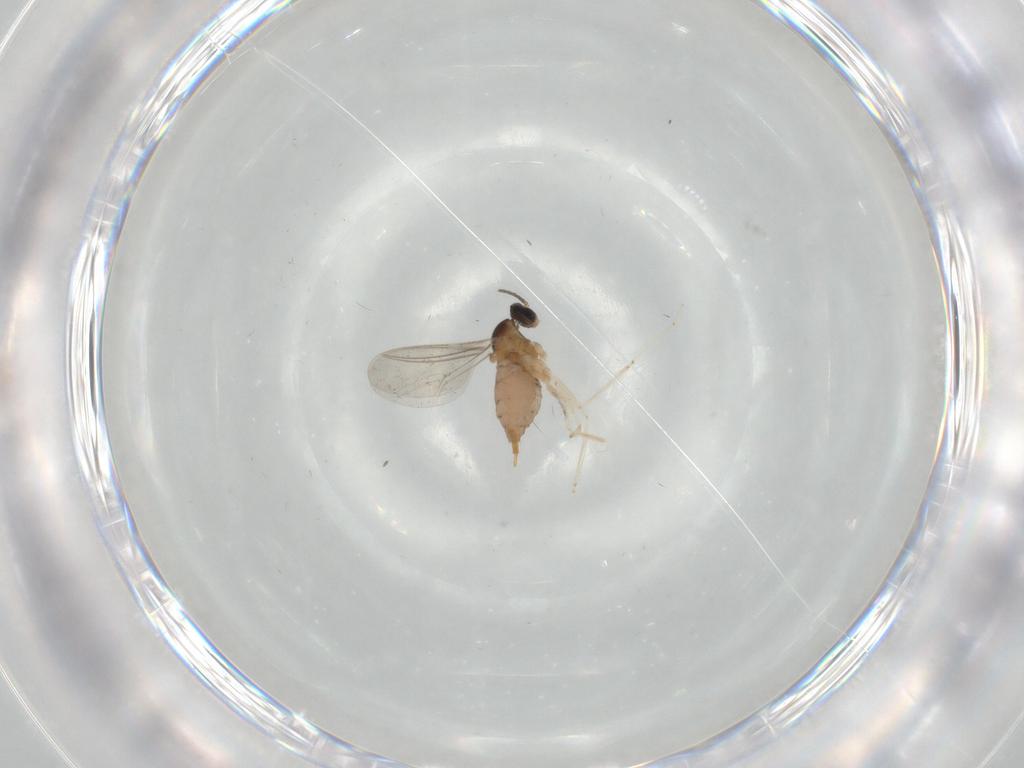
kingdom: Animalia
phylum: Arthropoda
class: Insecta
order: Diptera
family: Cecidomyiidae
